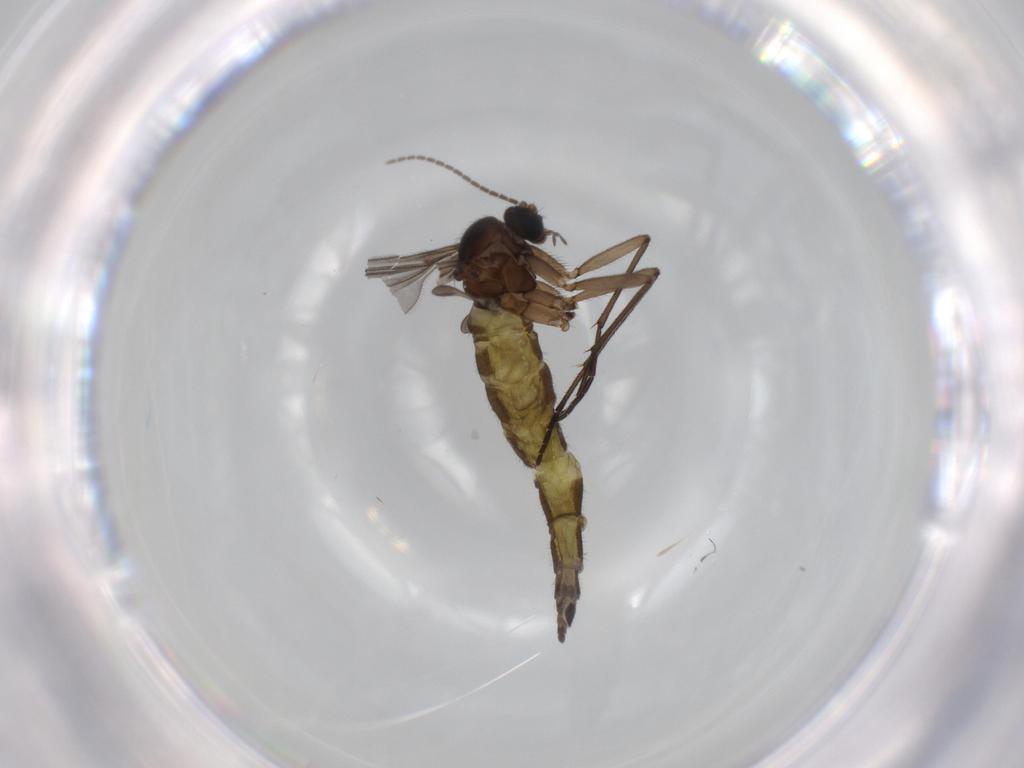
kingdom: Animalia
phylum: Arthropoda
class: Insecta
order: Diptera
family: Sciaridae
